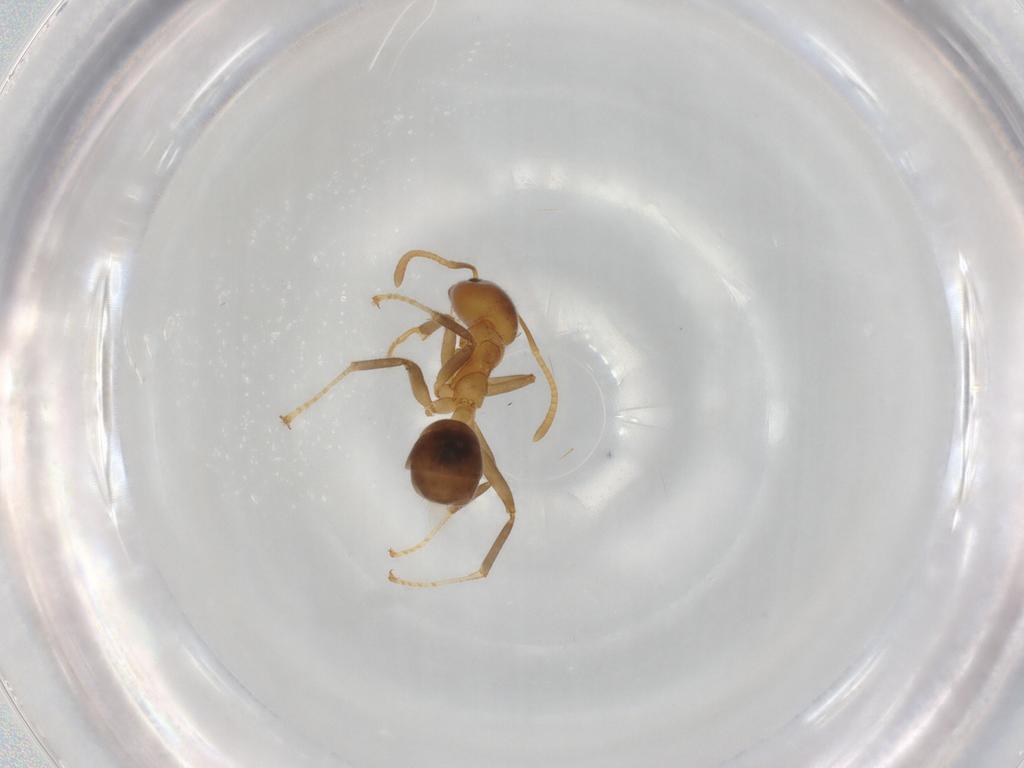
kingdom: Animalia
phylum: Arthropoda
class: Insecta
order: Hymenoptera
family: Formicidae
